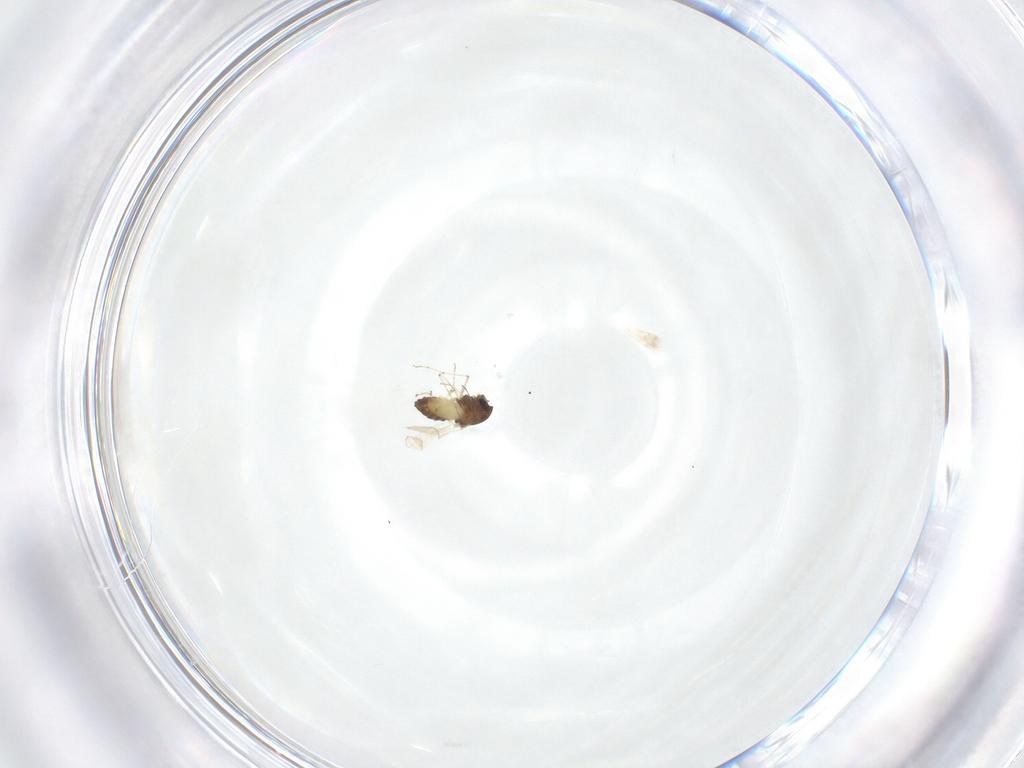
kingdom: Animalia
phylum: Arthropoda
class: Insecta
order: Diptera
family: Chironomidae
